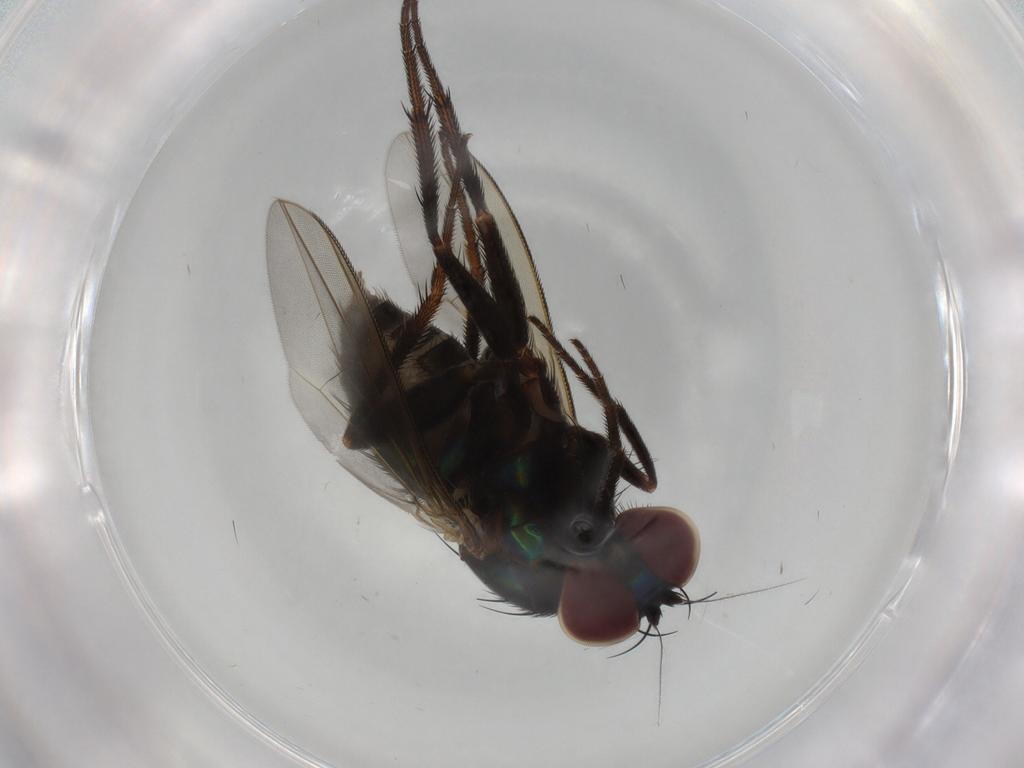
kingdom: Animalia
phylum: Arthropoda
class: Insecta
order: Diptera
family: Dolichopodidae
